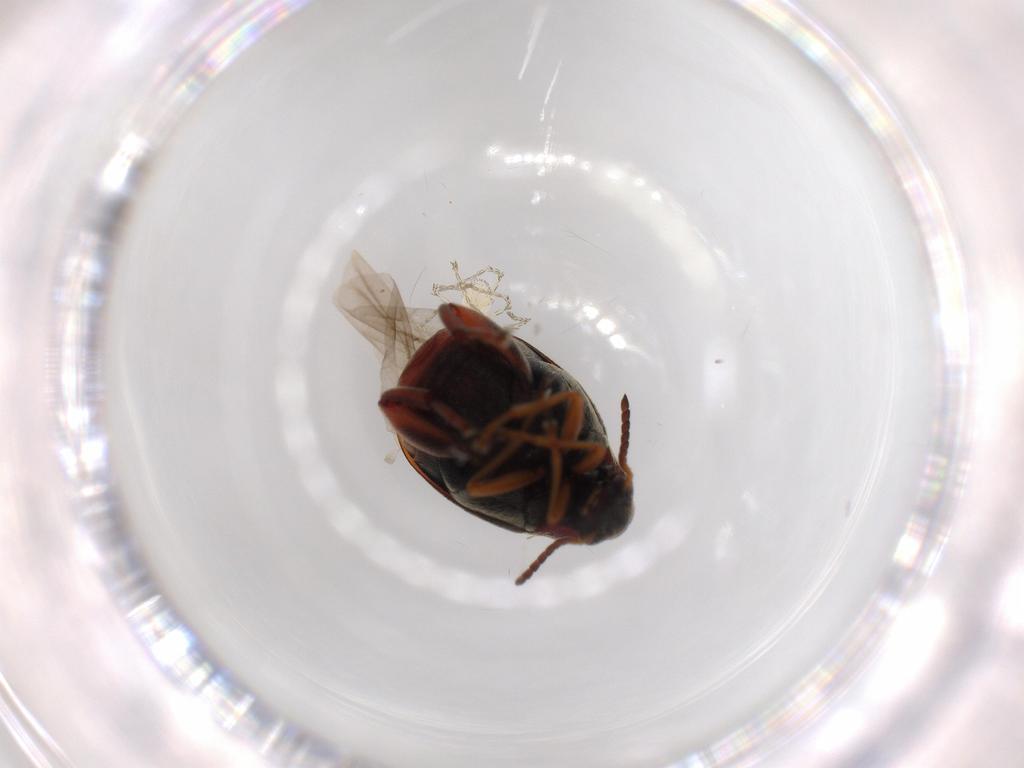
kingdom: Animalia
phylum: Arthropoda
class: Insecta
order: Coleoptera
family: Chrysomelidae
